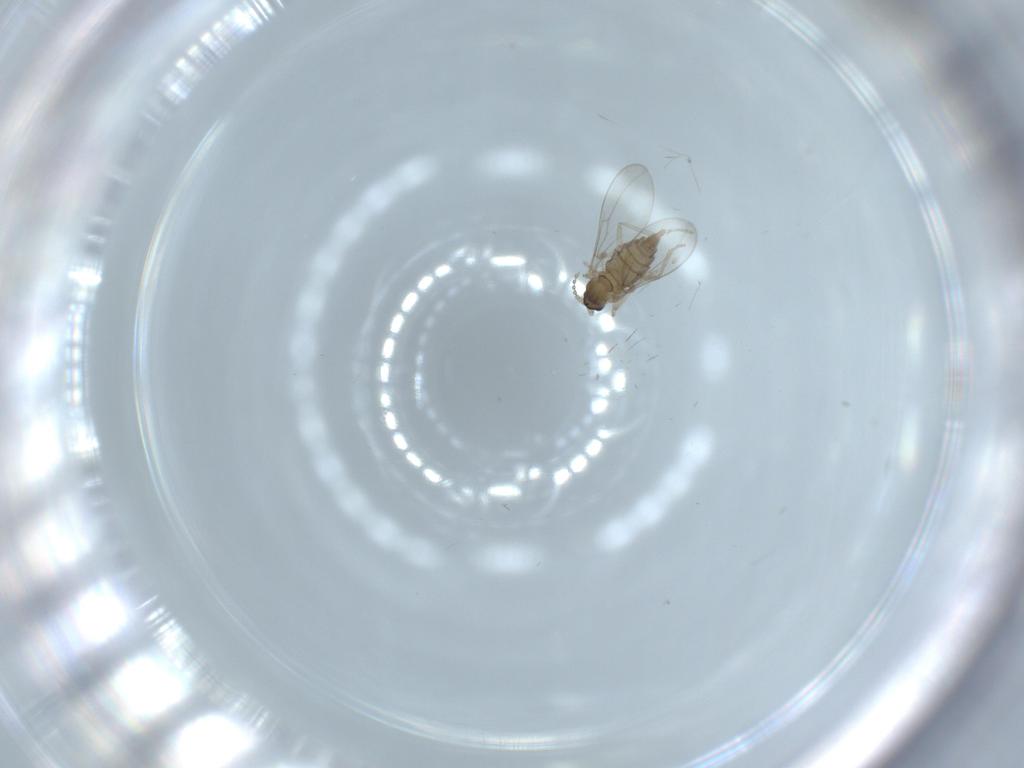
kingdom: Animalia
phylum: Arthropoda
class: Insecta
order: Diptera
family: Cecidomyiidae
